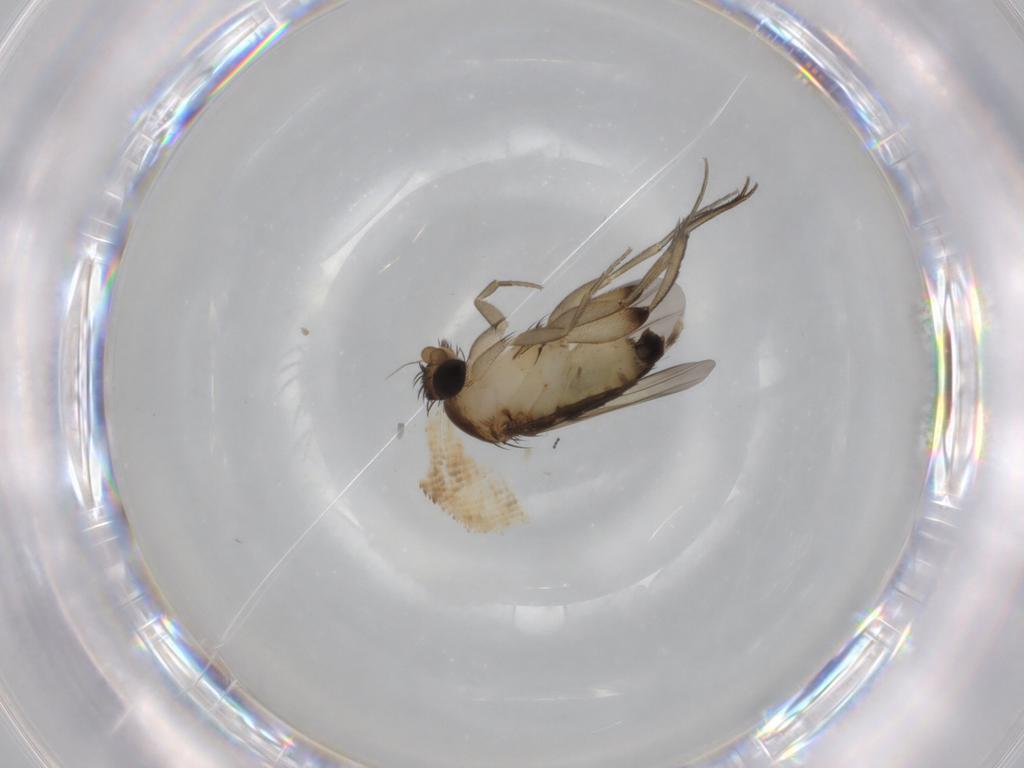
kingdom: Animalia
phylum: Arthropoda
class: Insecta
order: Diptera
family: Phoridae
